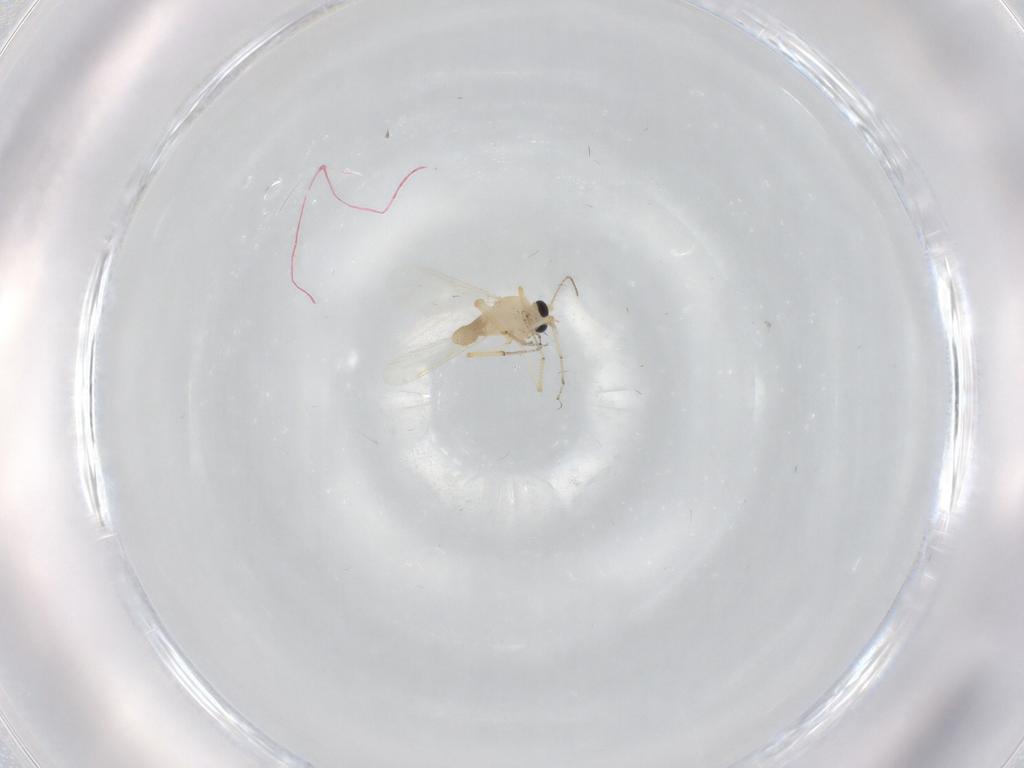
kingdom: Animalia
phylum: Arthropoda
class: Insecta
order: Diptera
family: Ceratopogonidae
